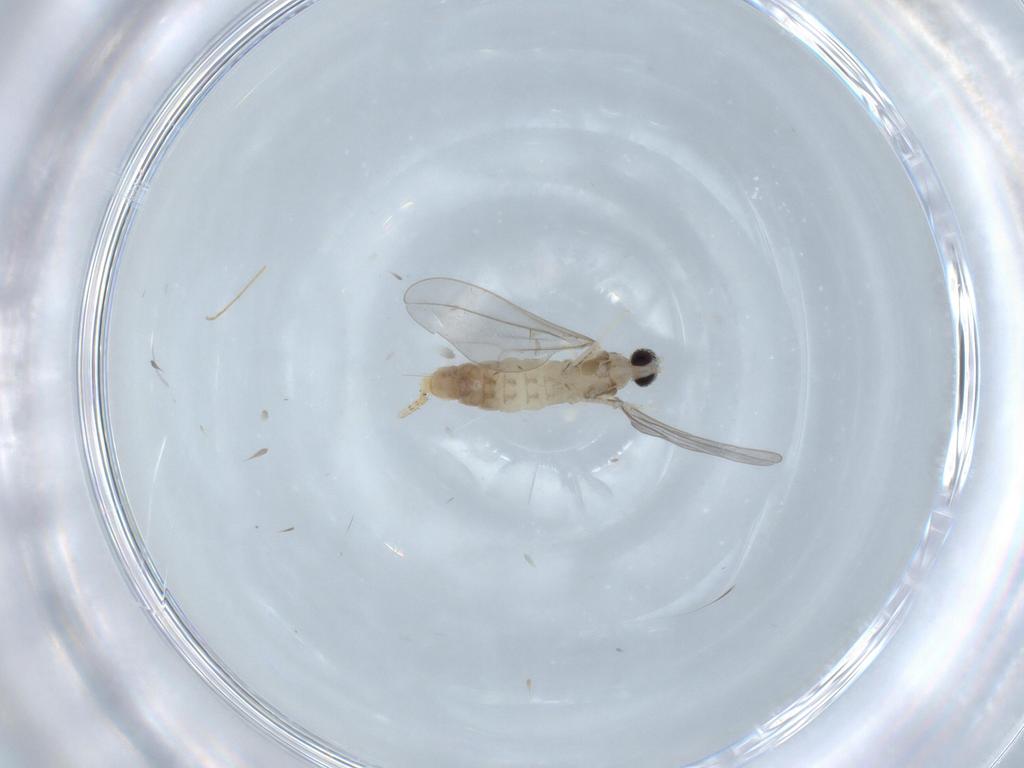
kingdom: Animalia
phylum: Arthropoda
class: Insecta
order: Diptera
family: Cecidomyiidae
